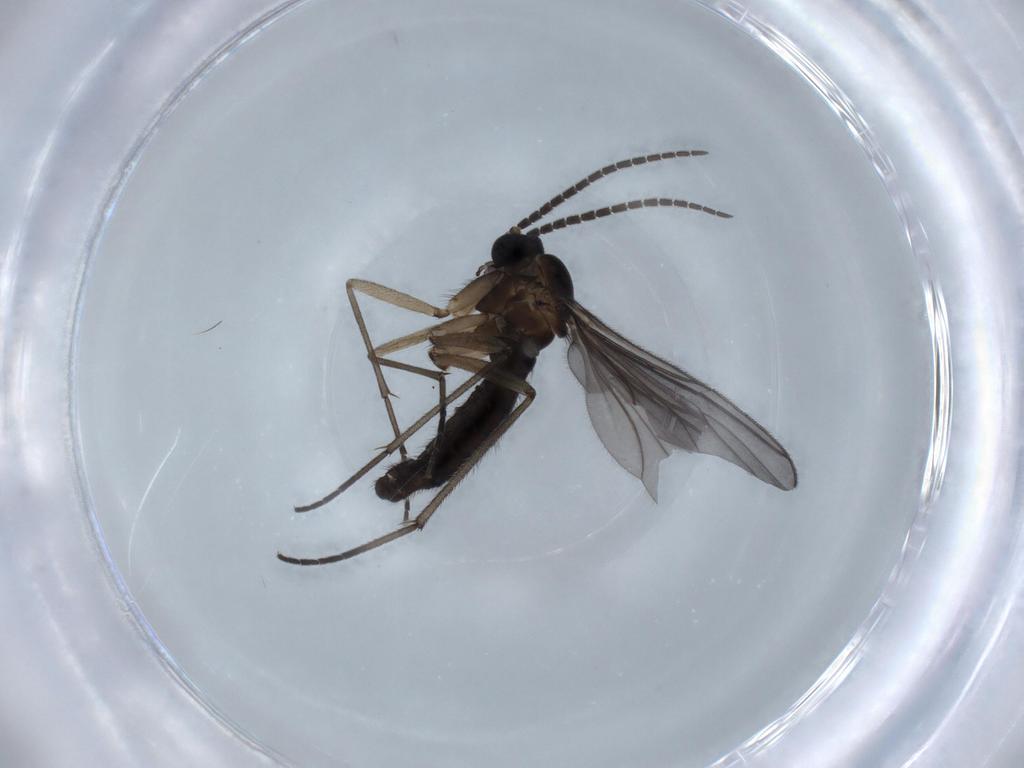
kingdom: Animalia
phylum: Arthropoda
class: Insecta
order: Diptera
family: Sciaridae
